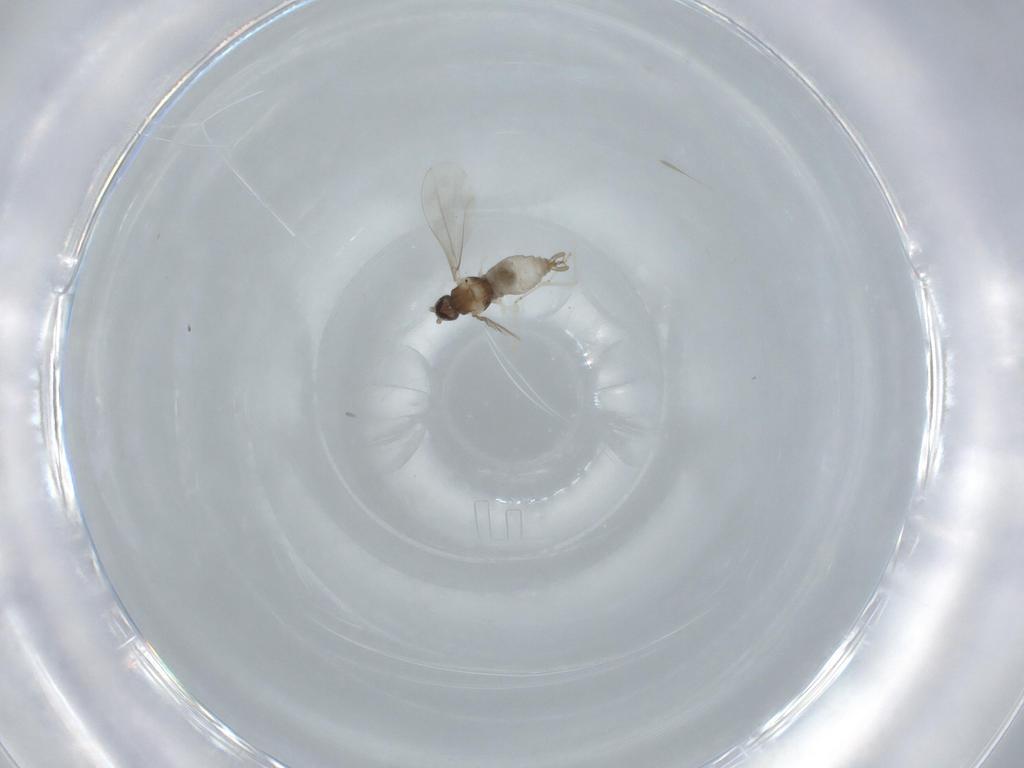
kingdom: Animalia
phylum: Arthropoda
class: Insecta
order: Diptera
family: Cecidomyiidae
